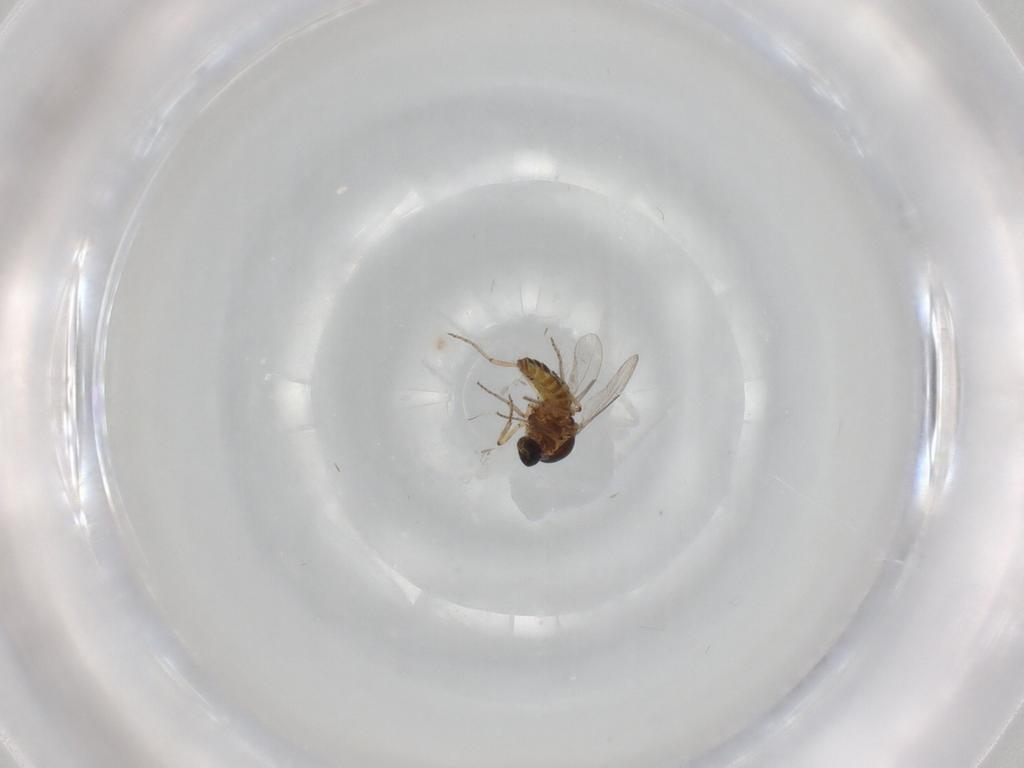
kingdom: Animalia
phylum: Arthropoda
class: Insecta
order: Diptera
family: Ceratopogonidae
